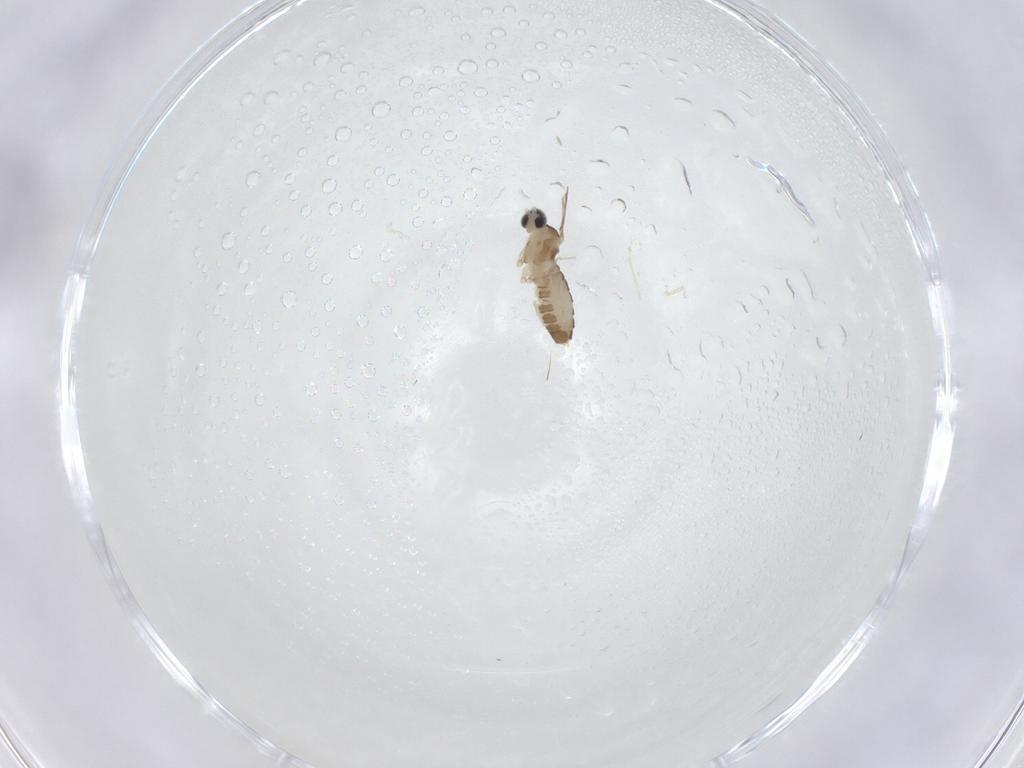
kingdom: Animalia
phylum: Arthropoda
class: Insecta
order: Diptera
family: Cecidomyiidae
